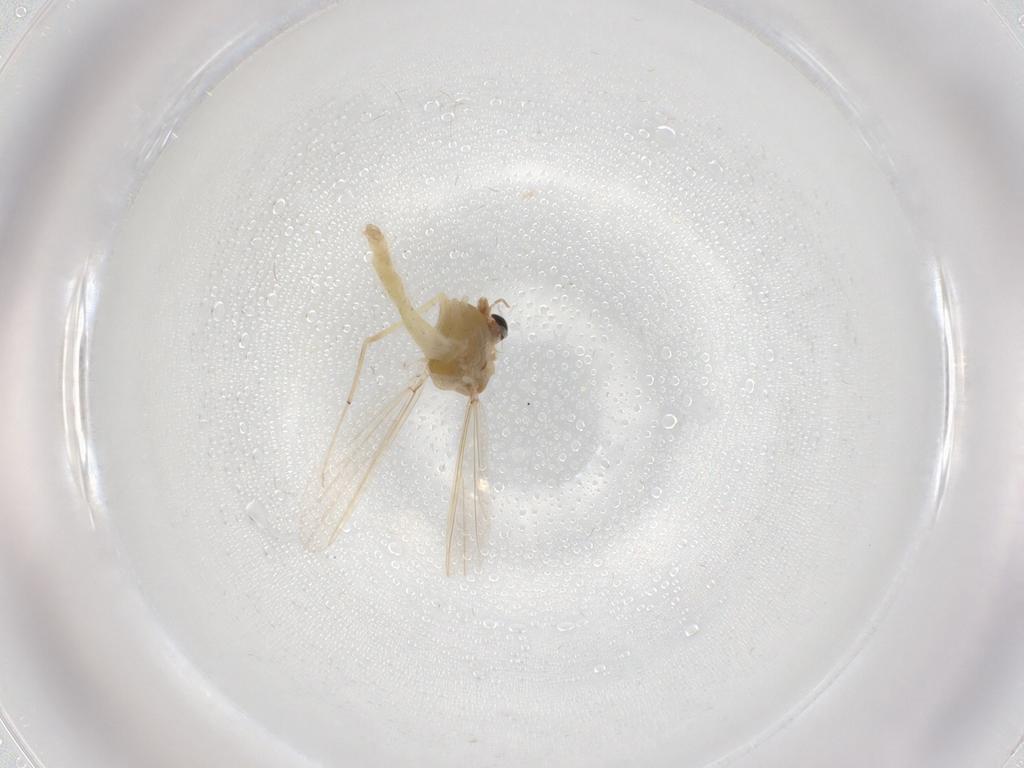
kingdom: Animalia
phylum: Arthropoda
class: Insecta
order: Diptera
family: Chironomidae
